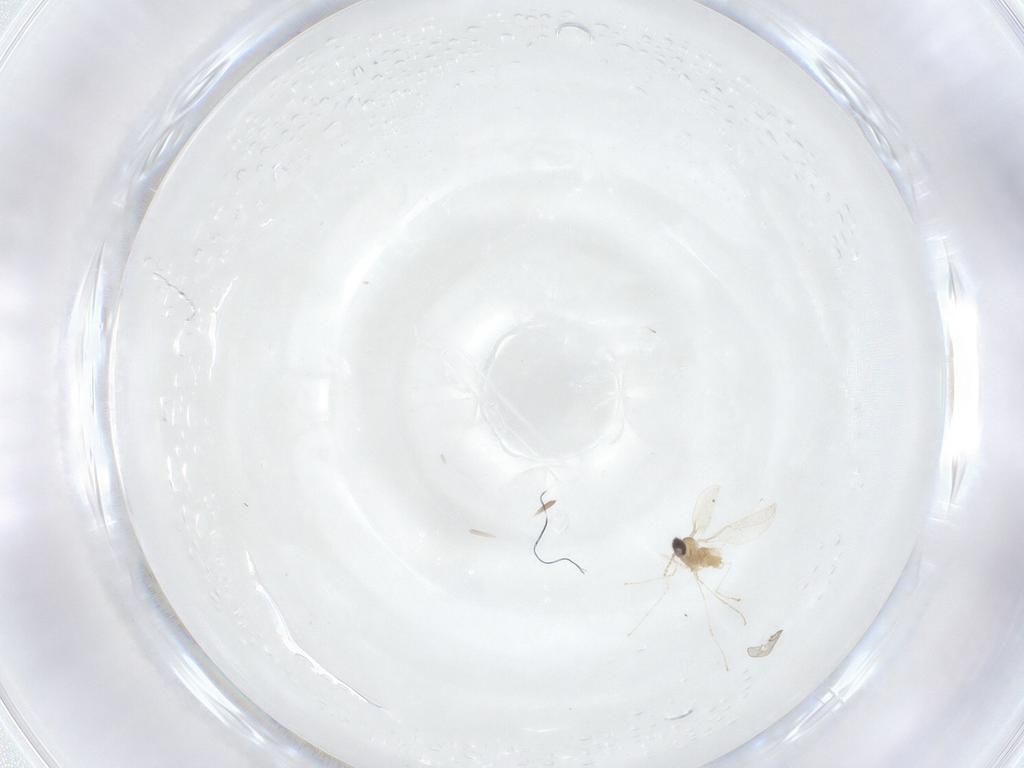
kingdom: Animalia
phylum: Arthropoda
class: Insecta
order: Diptera
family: Cecidomyiidae
